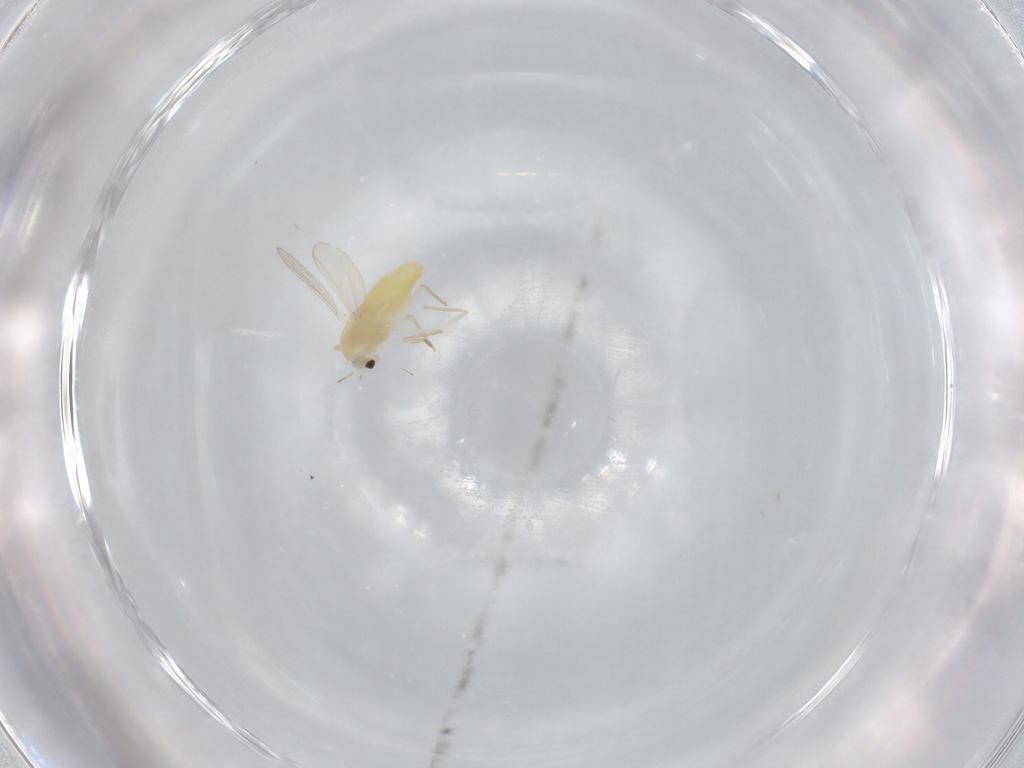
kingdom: Animalia
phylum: Arthropoda
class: Insecta
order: Diptera
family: Chironomidae
